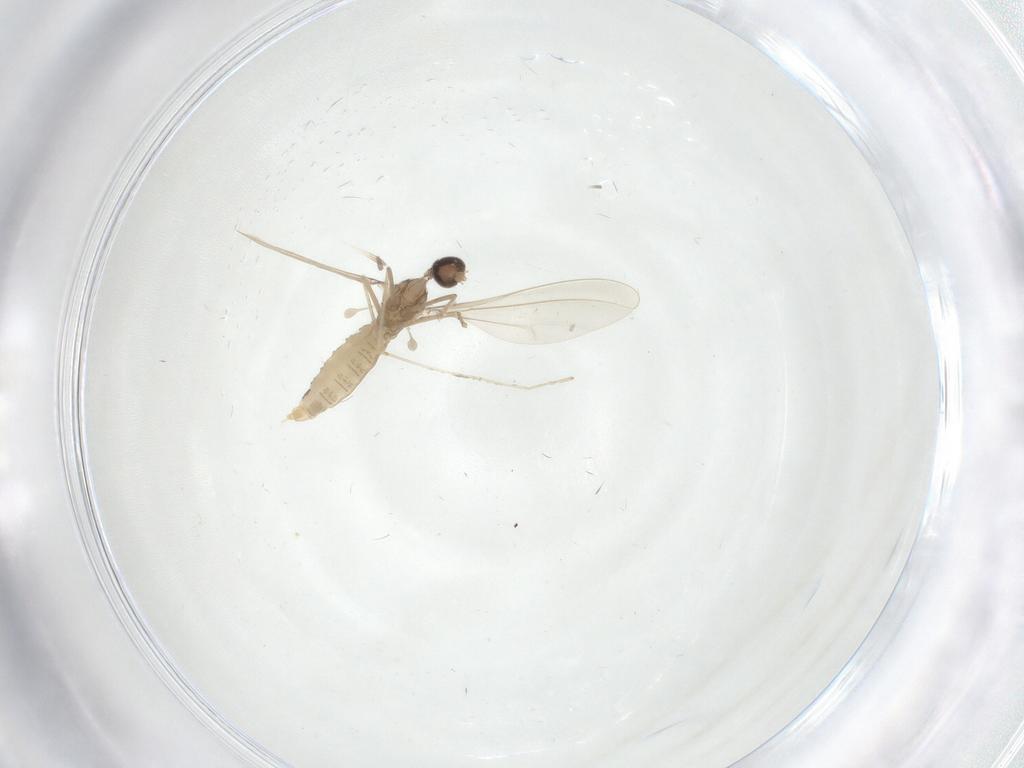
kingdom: Animalia
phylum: Arthropoda
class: Insecta
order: Diptera
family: Cecidomyiidae
